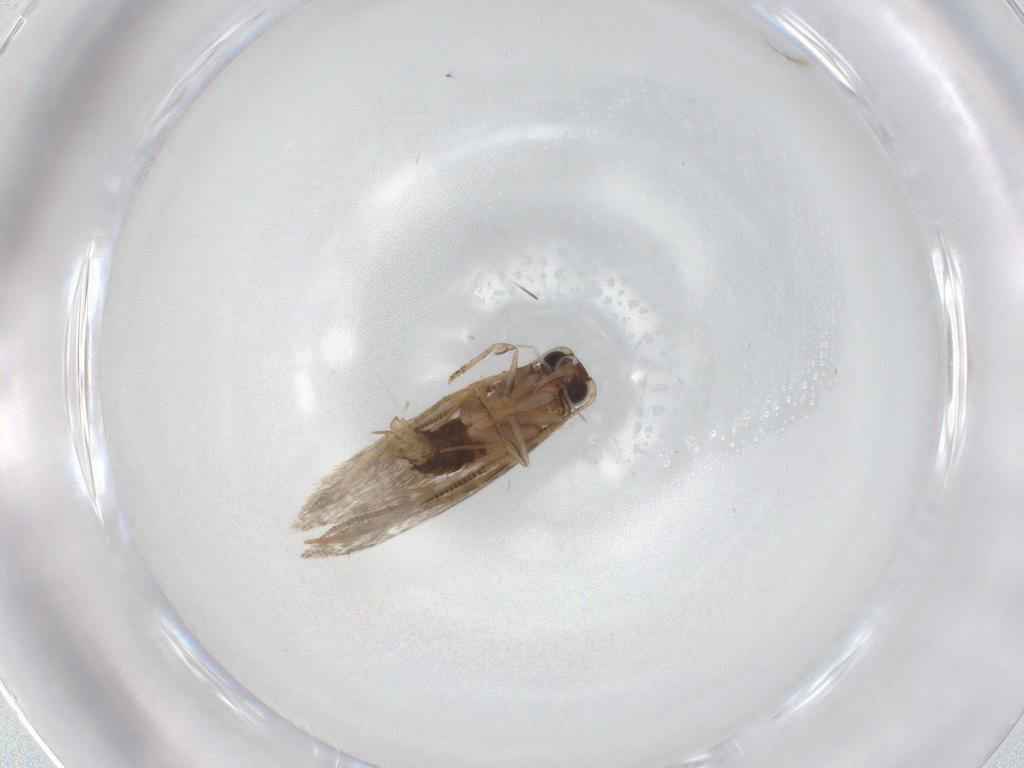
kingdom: Animalia
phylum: Arthropoda
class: Insecta
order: Lepidoptera
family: Tineidae
